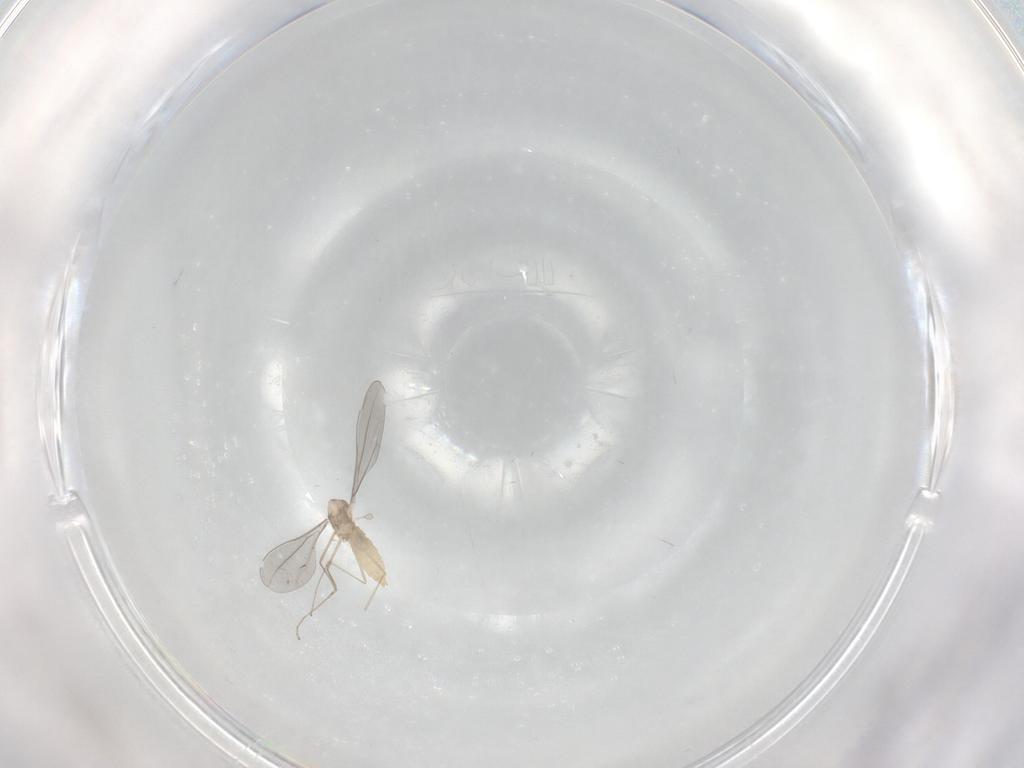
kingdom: Animalia
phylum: Arthropoda
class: Insecta
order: Diptera
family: Cecidomyiidae
